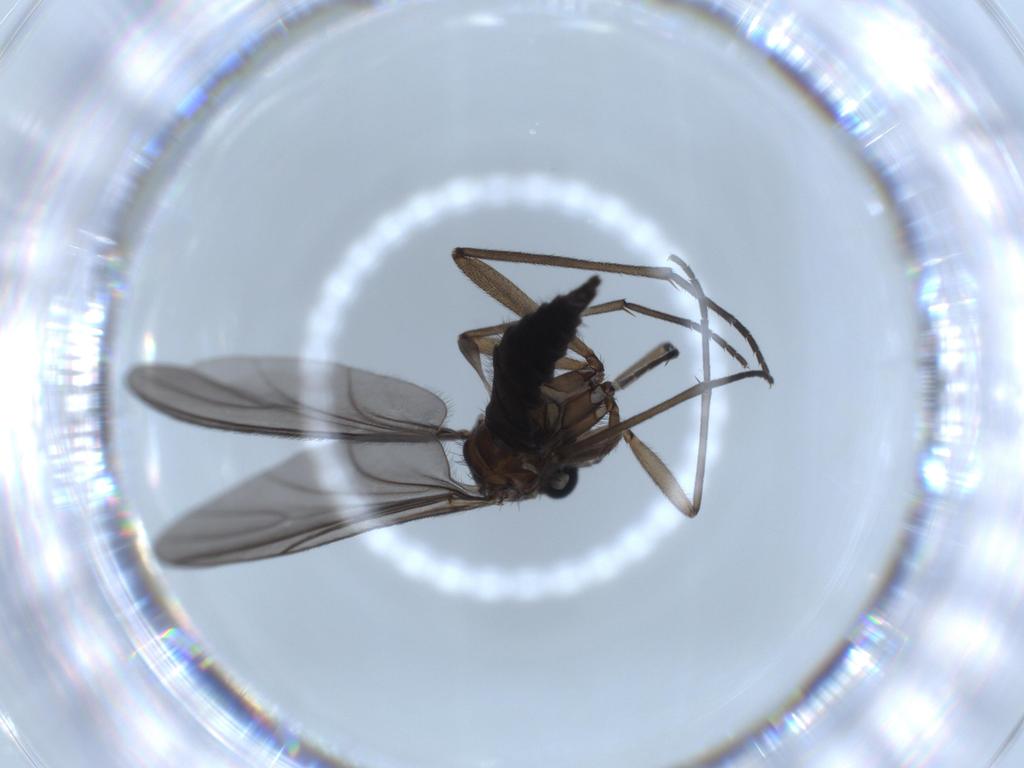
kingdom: Animalia
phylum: Arthropoda
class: Insecta
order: Diptera
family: Sciaridae
